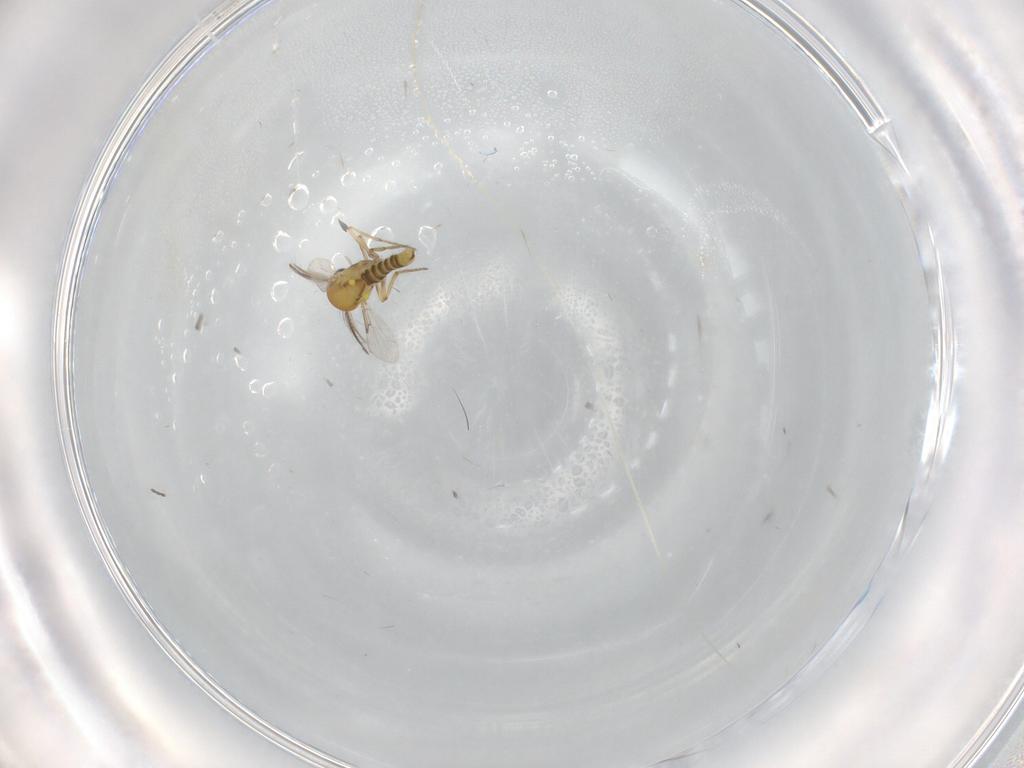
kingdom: Animalia
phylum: Arthropoda
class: Insecta
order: Diptera
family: Cecidomyiidae
